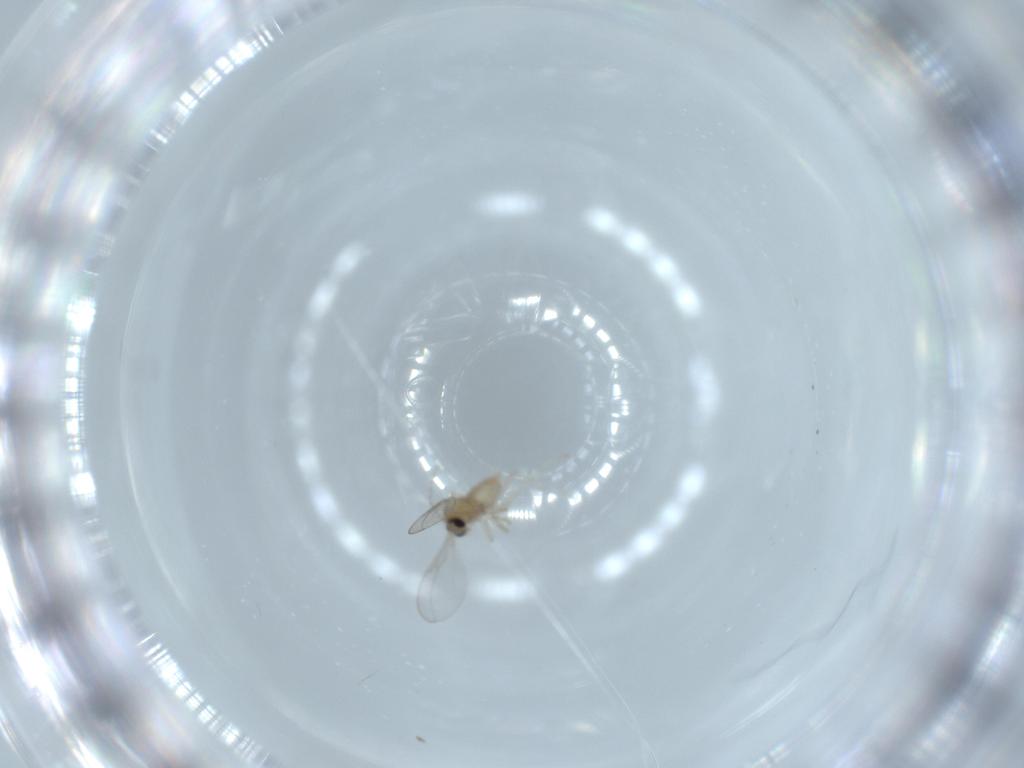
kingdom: Animalia
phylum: Arthropoda
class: Insecta
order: Diptera
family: Cecidomyiidae
